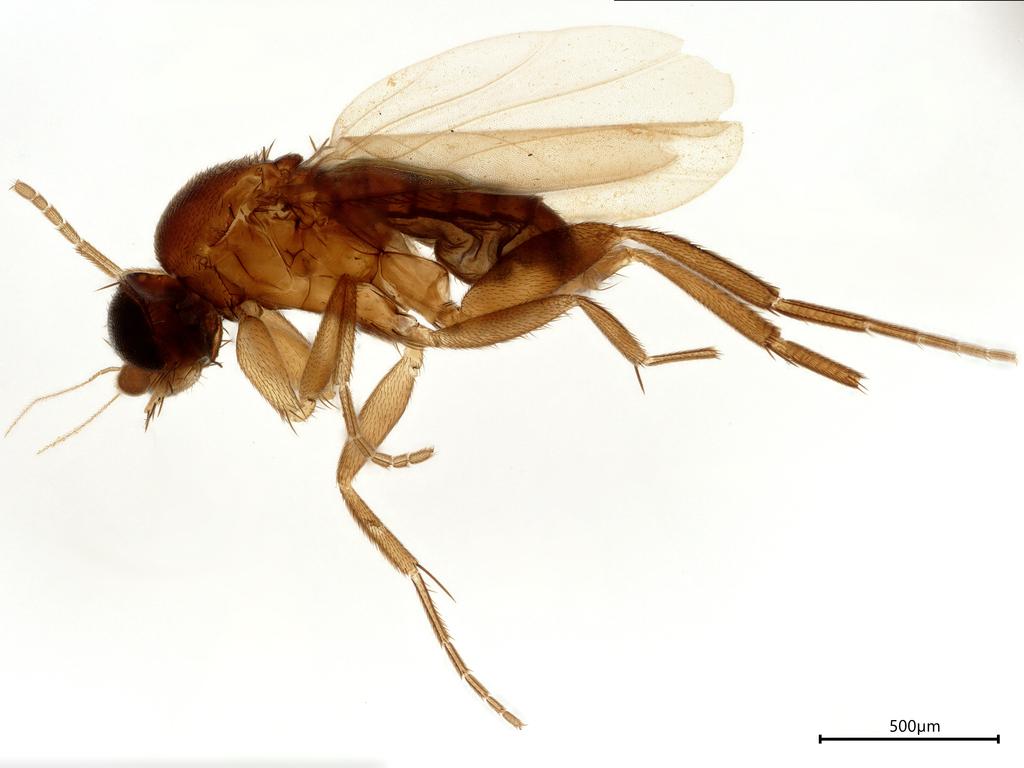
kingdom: Animalia
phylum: Arthropoda
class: Insecta
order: Diptera
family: Phoridae
